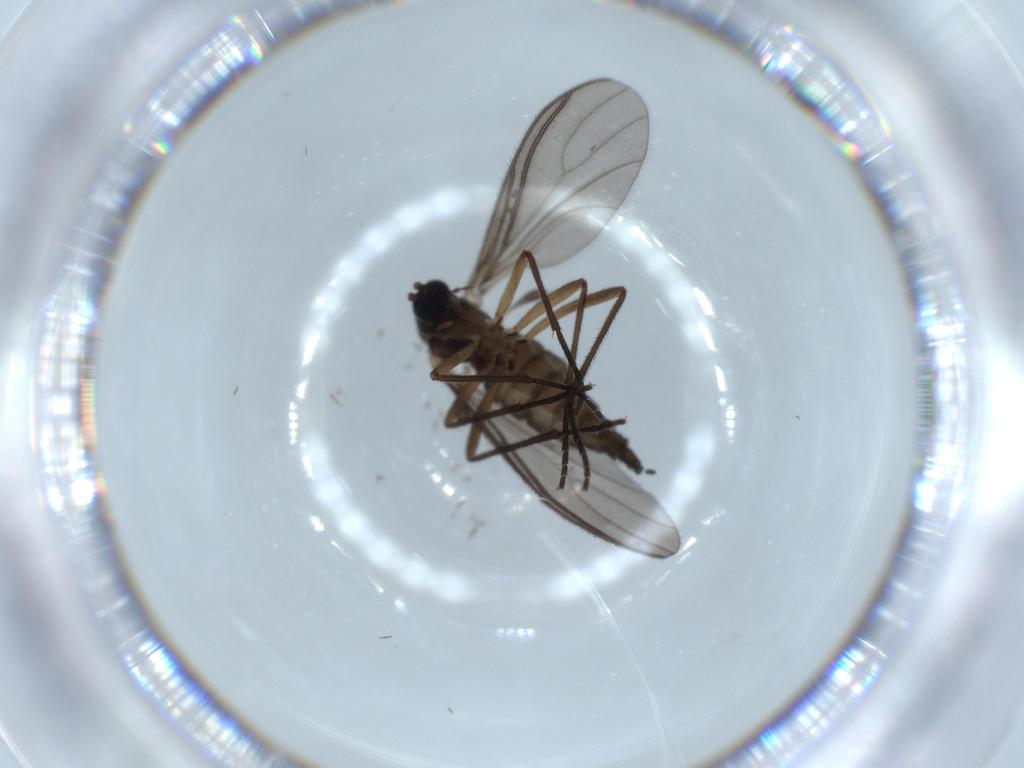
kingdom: Animalia
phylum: Arthropoda
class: Insecta
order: Diptera
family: Sciaridae
